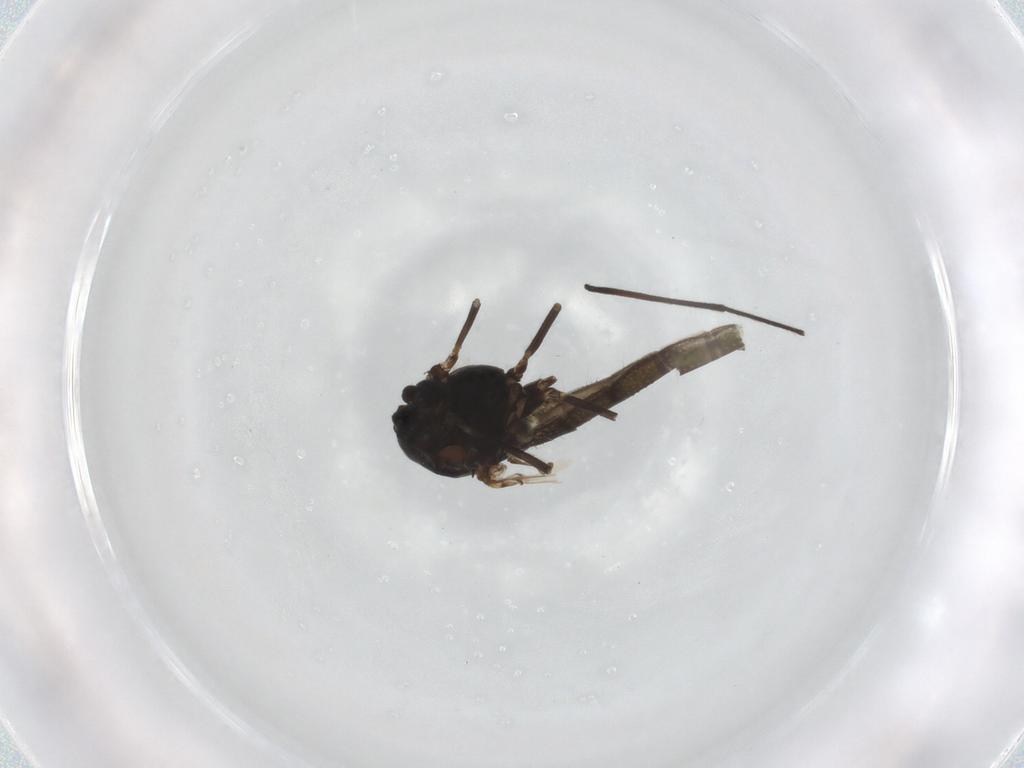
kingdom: Animalia
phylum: Arthropoda
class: Insecta
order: Diptera
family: Chironomidae
